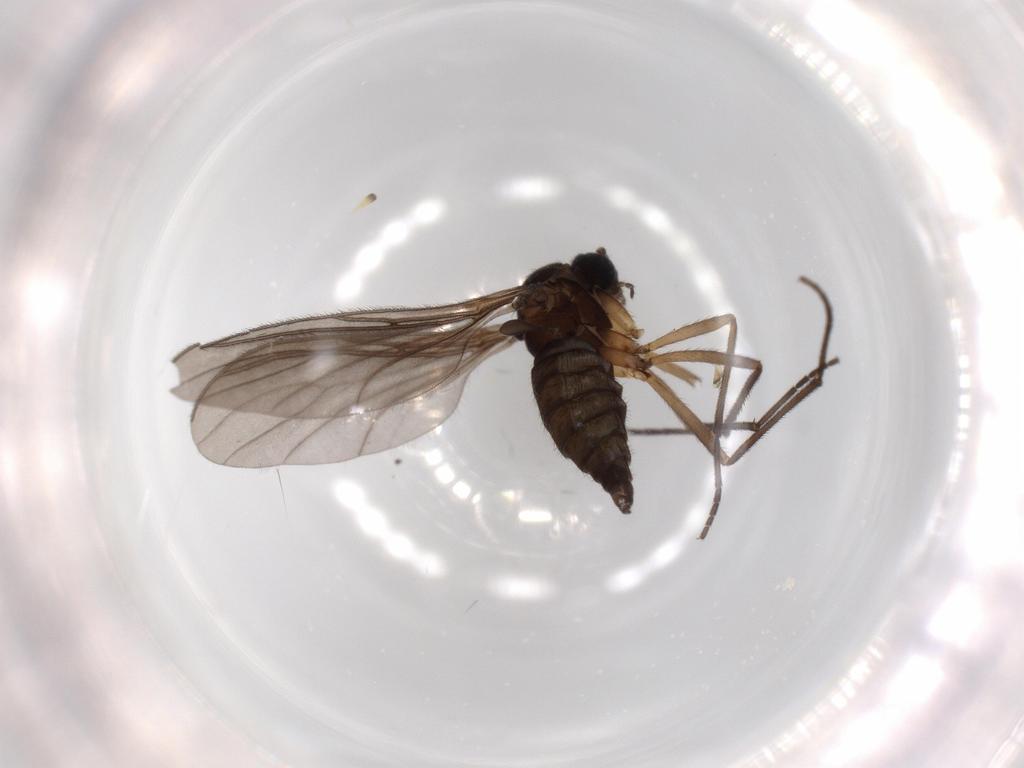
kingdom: Animalia
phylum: Arthropoda
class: Insecta
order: Diptera
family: Sciaridae
